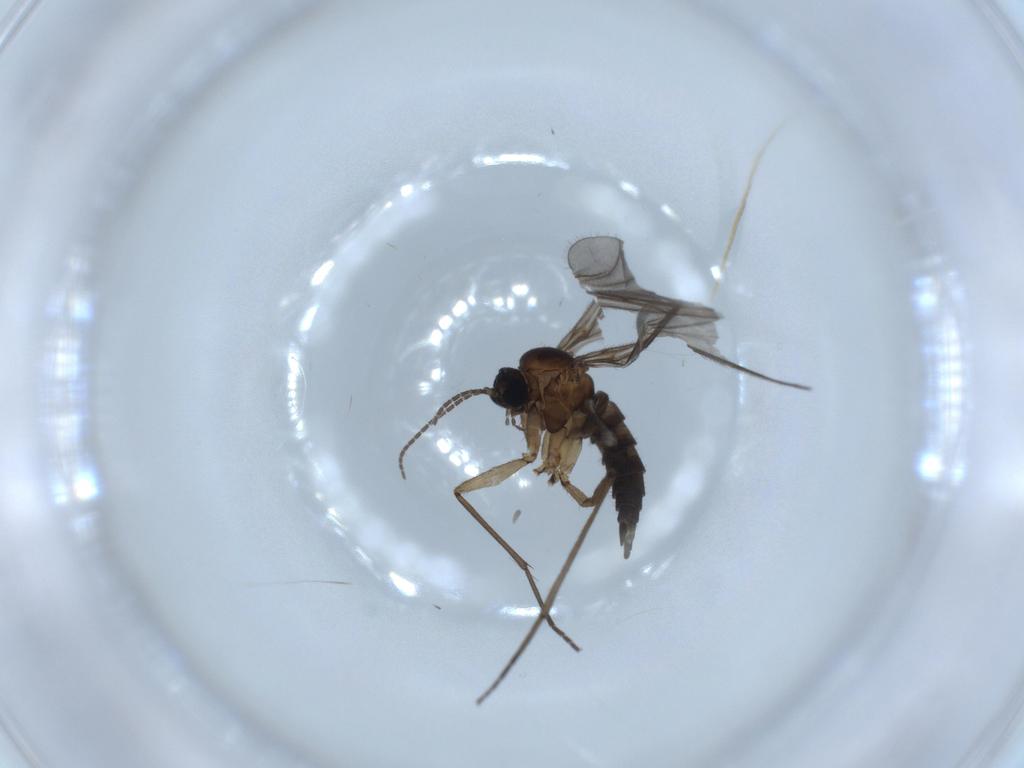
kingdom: Animalia
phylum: Arthropoda
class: Insecta
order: Diptera
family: Sciaridae
